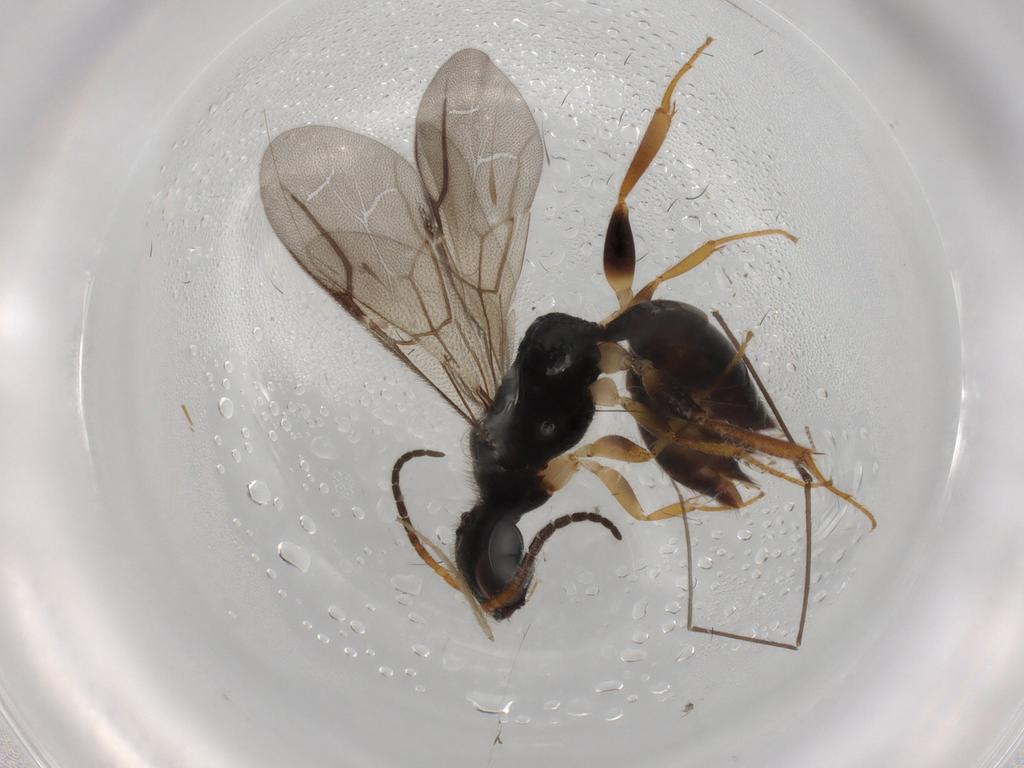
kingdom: Animalia
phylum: Arthropoda
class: Insecta
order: Hymenoptera
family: Bethylidae
